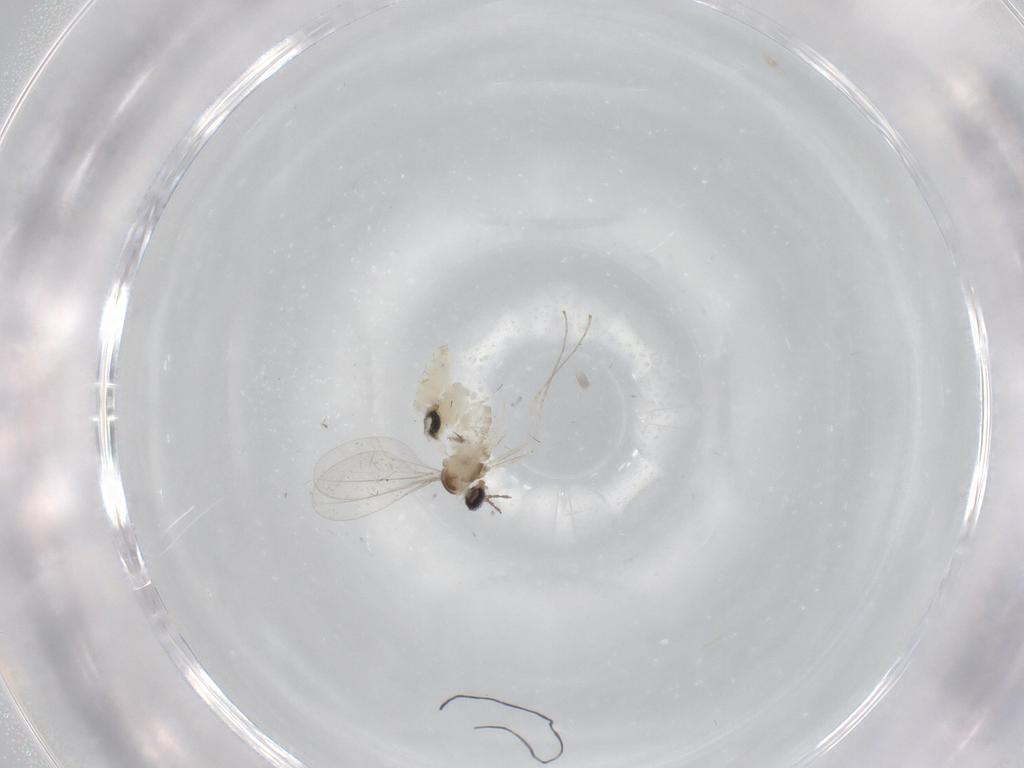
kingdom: Animalia
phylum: Arthropoda
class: Insecta
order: Diptera
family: Cecidomyiidae
